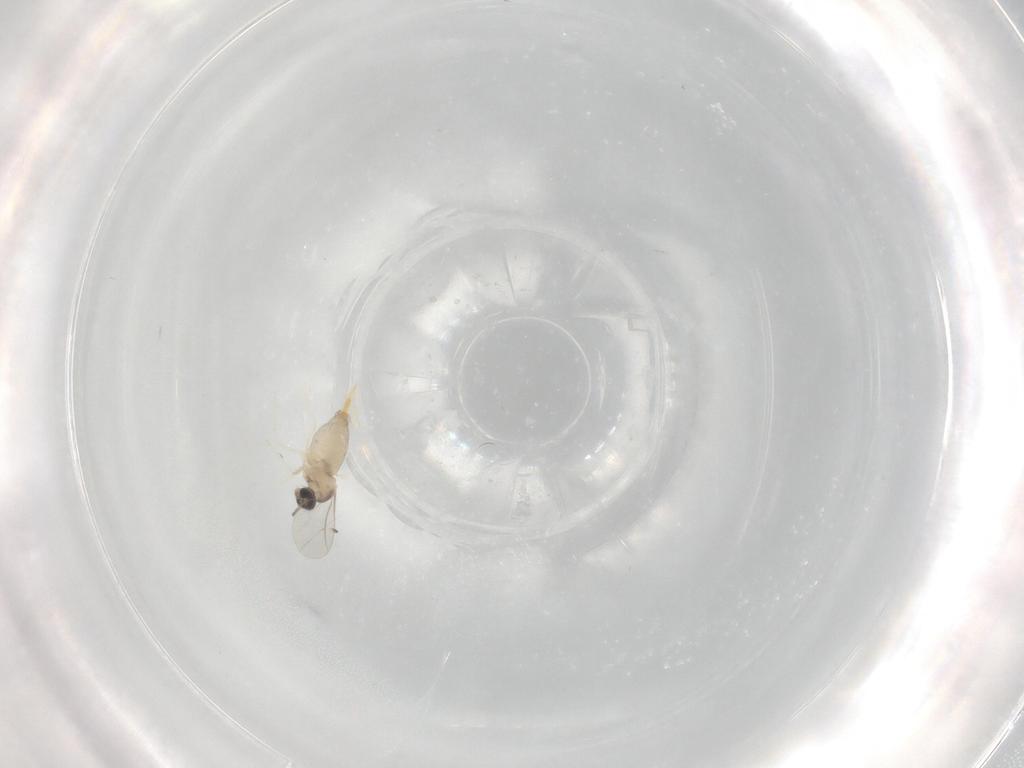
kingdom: Animalia
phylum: Arthropoda
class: Insecta
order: Diptera
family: Cecidomyiidae
